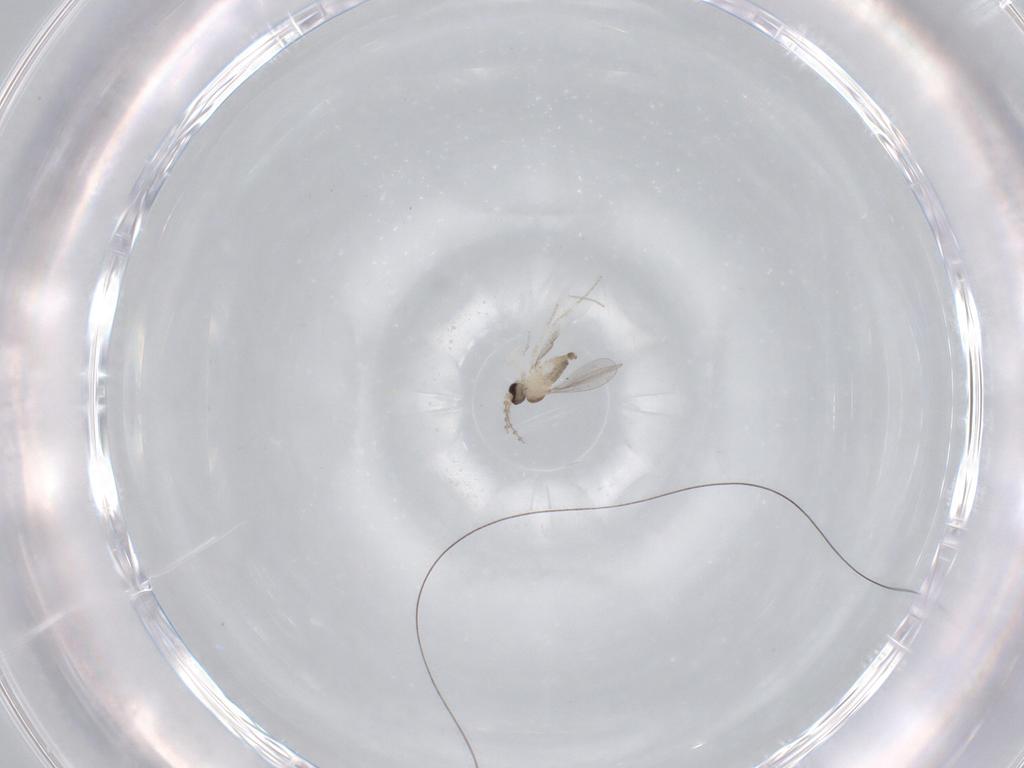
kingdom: Animalia
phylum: Arthropoda
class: Insecta
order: Diptera
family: Cecidomyiidae
